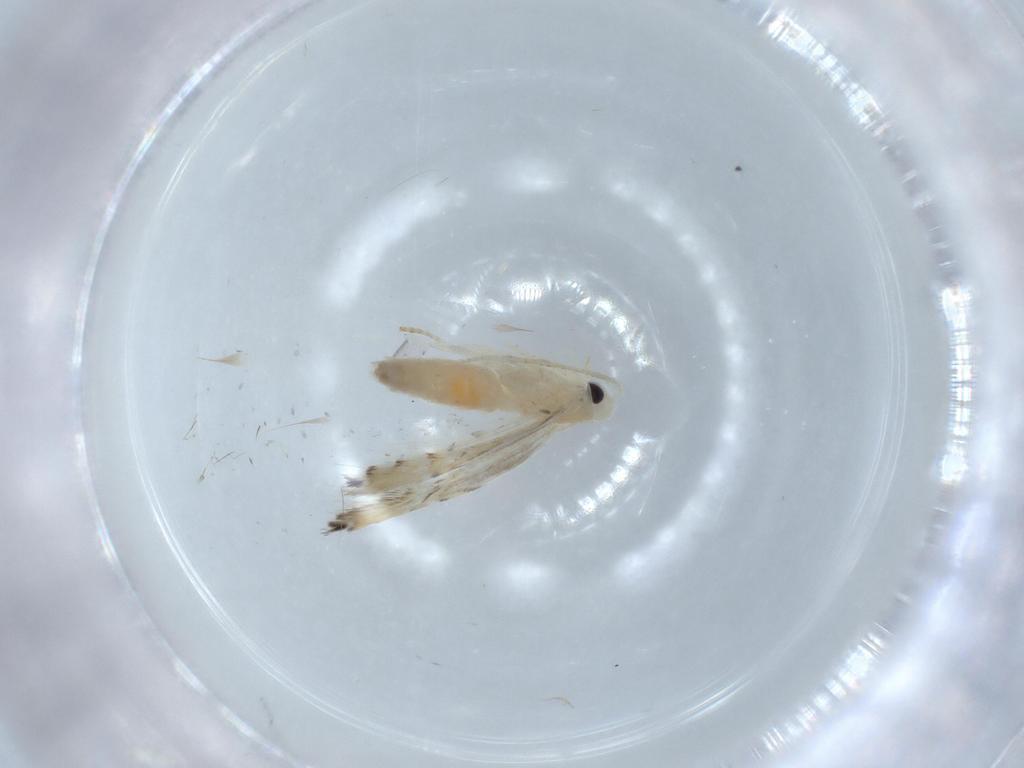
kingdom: Animalia
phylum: Arthropoda
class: Insecta
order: Lepidoptera
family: Gracillariidae
